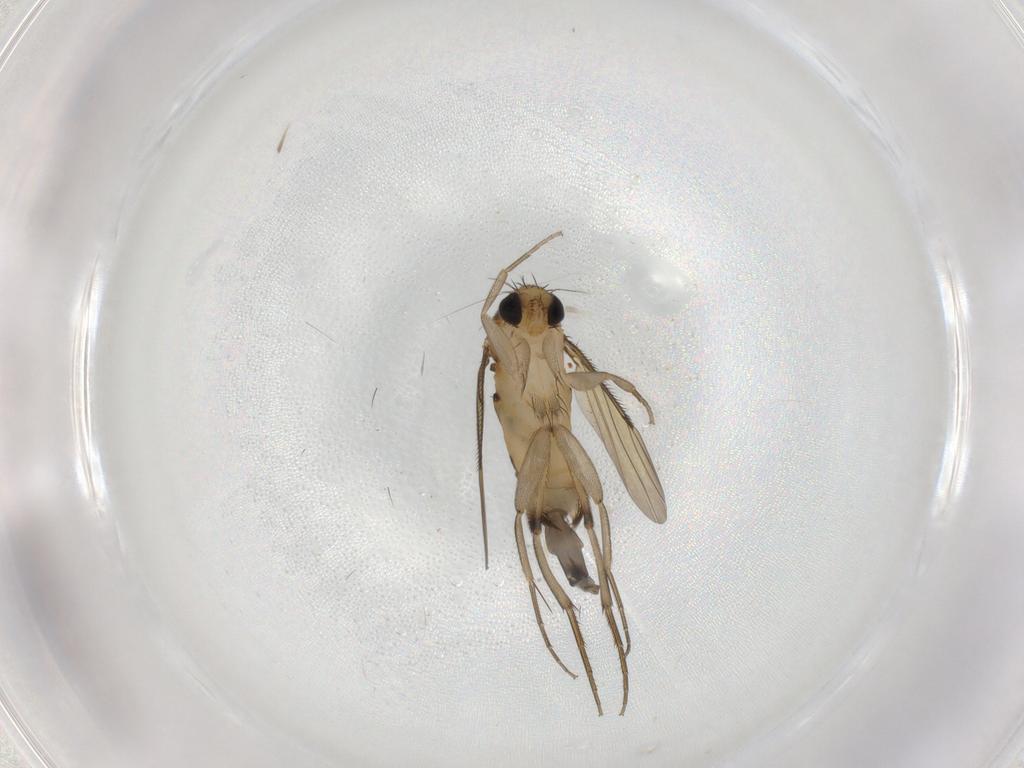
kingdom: Animalia
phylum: Arthropoda
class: Insecta
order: Diptera
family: Phoridae
